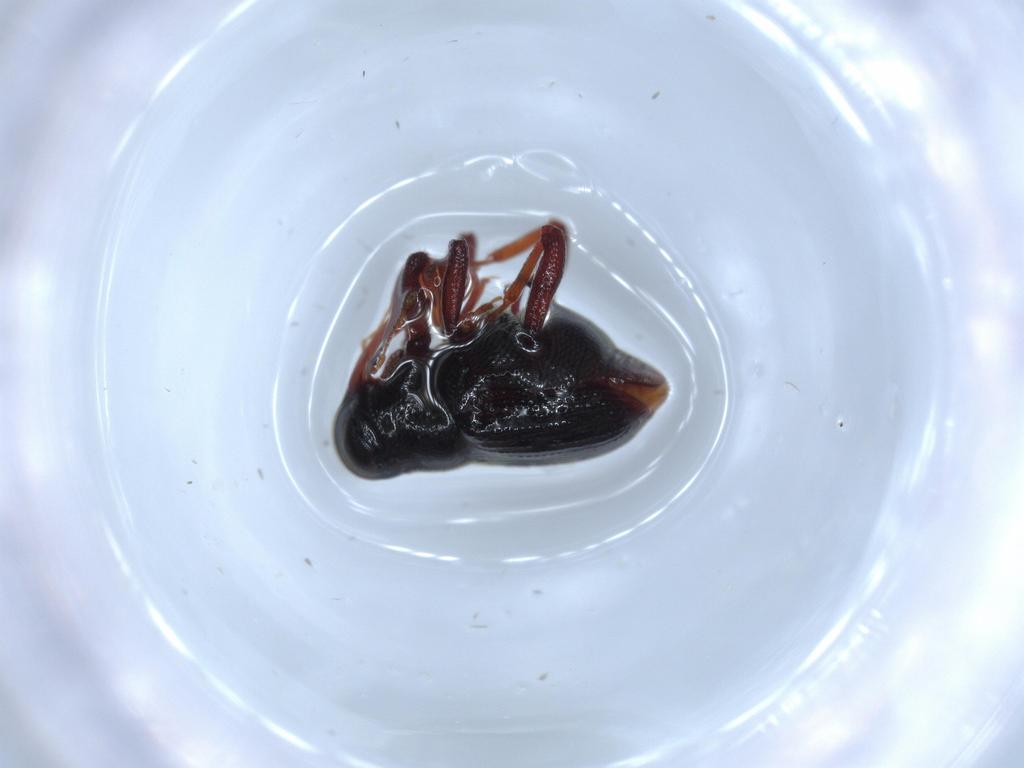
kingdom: Animalia
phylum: Arthropoda
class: Insecta
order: Coleoptera
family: Curculionidae
